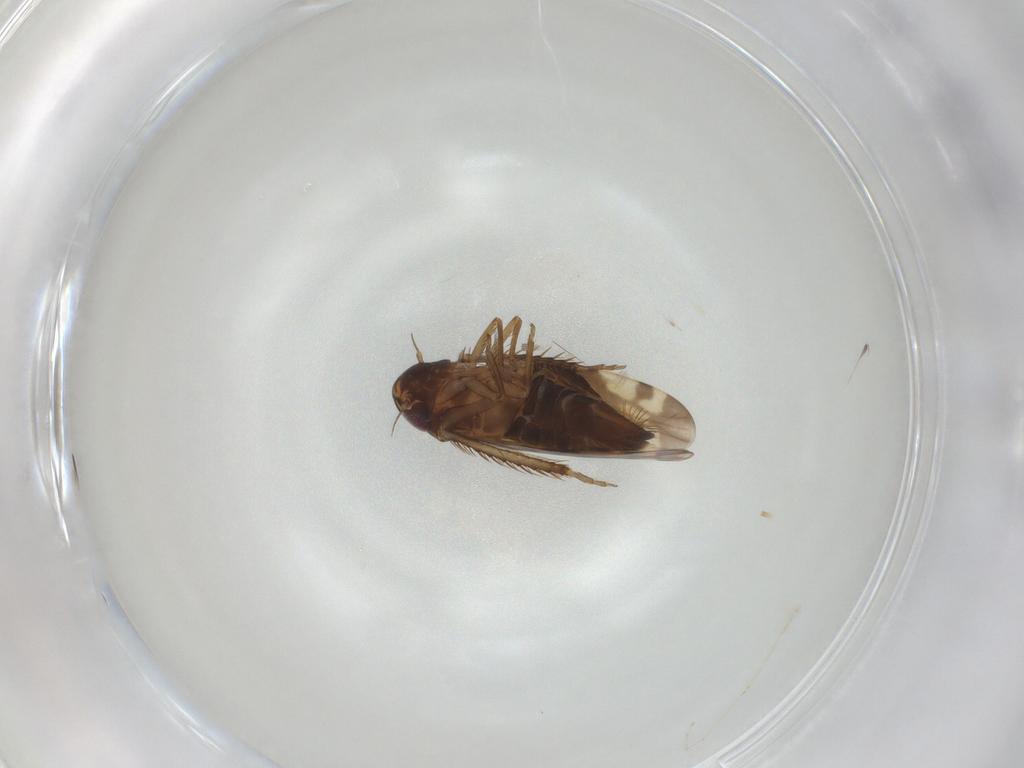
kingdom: Animalia
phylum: Arthropoda
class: Insecta
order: Hemiptera
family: Cicadellidae
